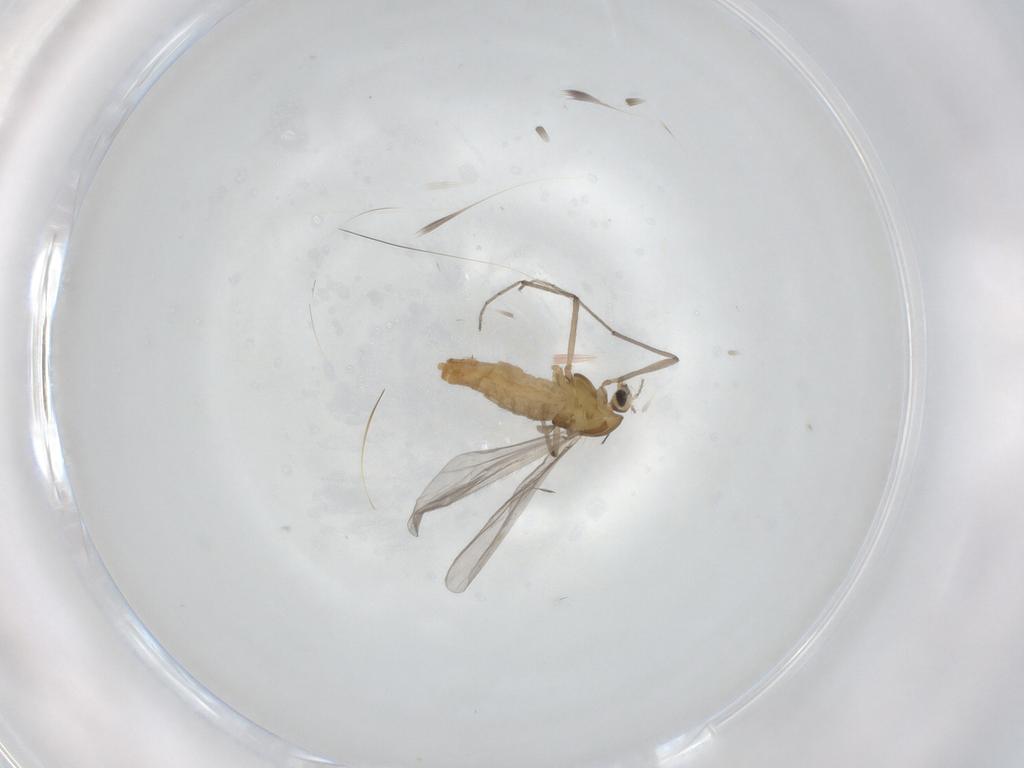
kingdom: Animalia
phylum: Arthropoda
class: Insecta
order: Diptera
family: Chironomidae
